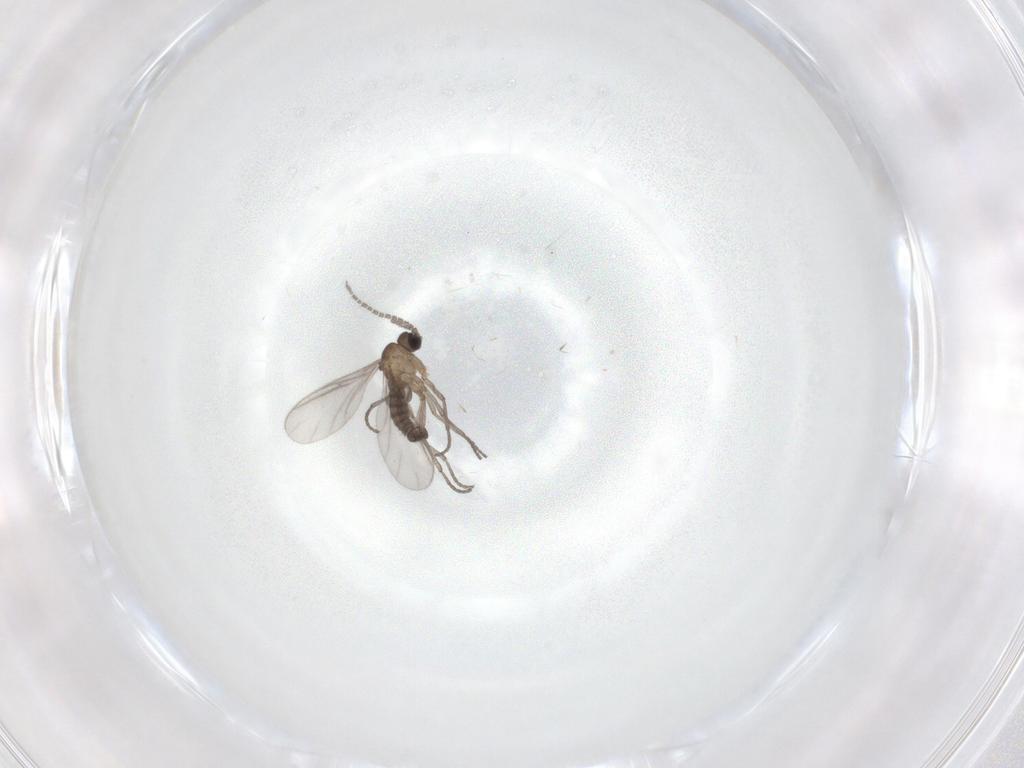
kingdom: Animalia
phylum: Arthropoda
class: Insecta
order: Diptera
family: Sciaridae
